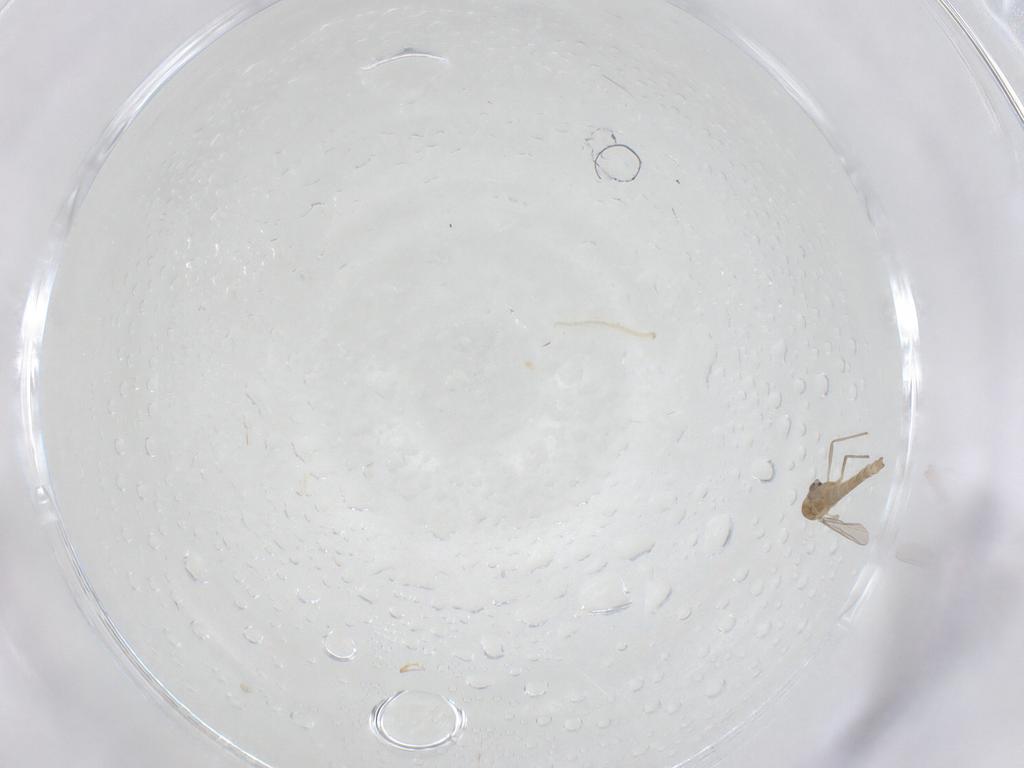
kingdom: Animalia
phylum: Arthropoda
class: Insecta
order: Diptera
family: Chironomidae
